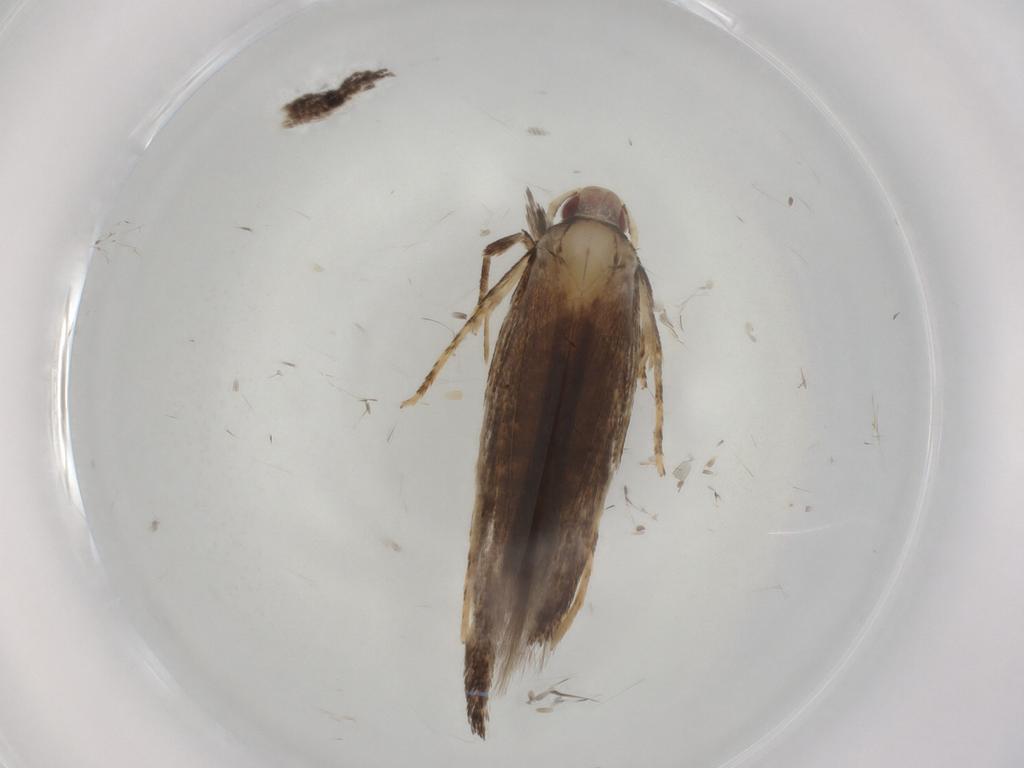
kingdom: Animalia
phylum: Arthropoda
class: Insecta
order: Lepidoptera
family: Cosmopterigidae
